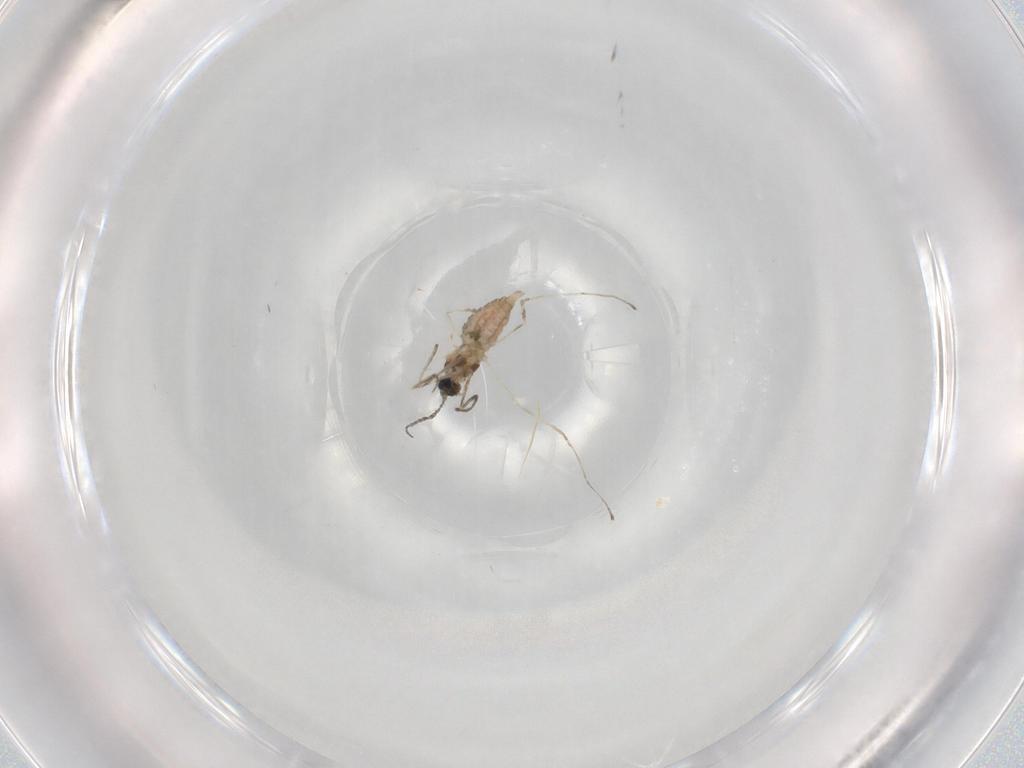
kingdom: Animalia
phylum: Arthropoda
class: Insecta
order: Diptera
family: Cecidomyiidae
